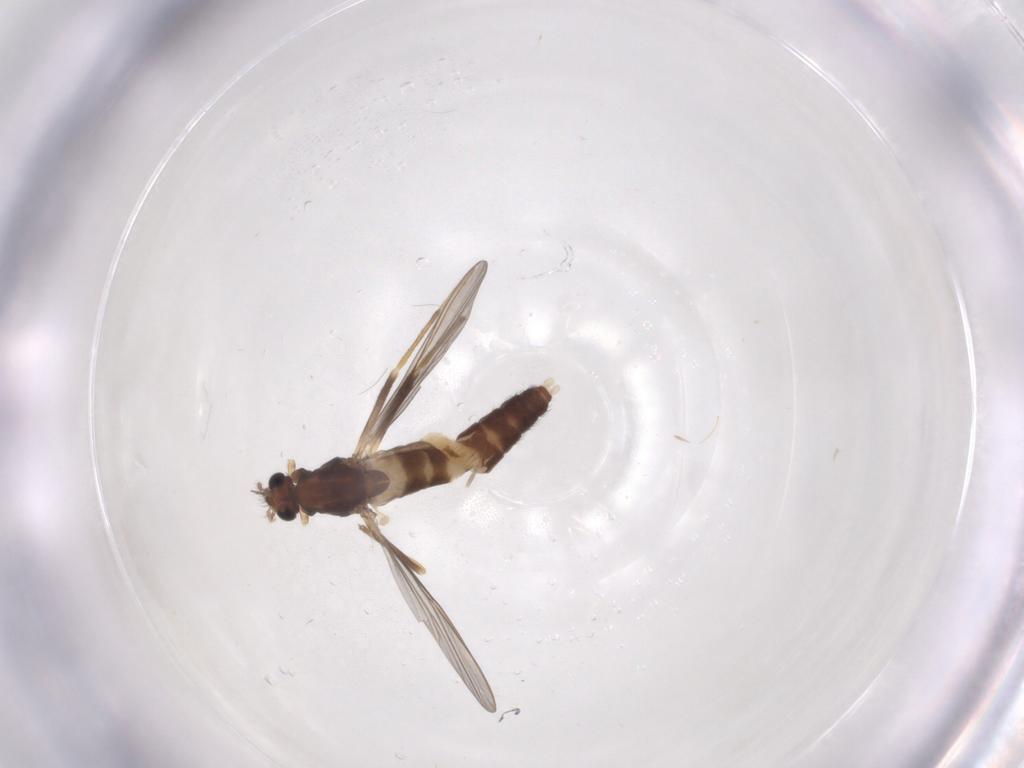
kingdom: Animalia
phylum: Arthropoda
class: Insecta
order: Diptera
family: Chironomidae
